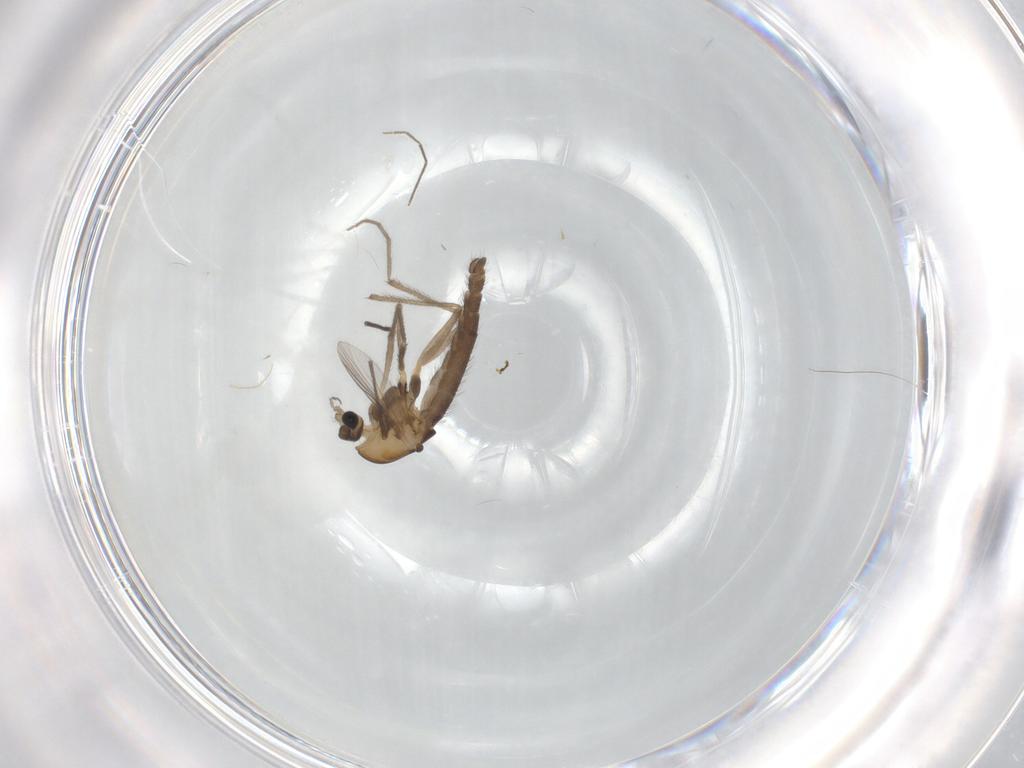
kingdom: Animalia
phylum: Arthropoda
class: Insecta
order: Diptera
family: Chironomidae
